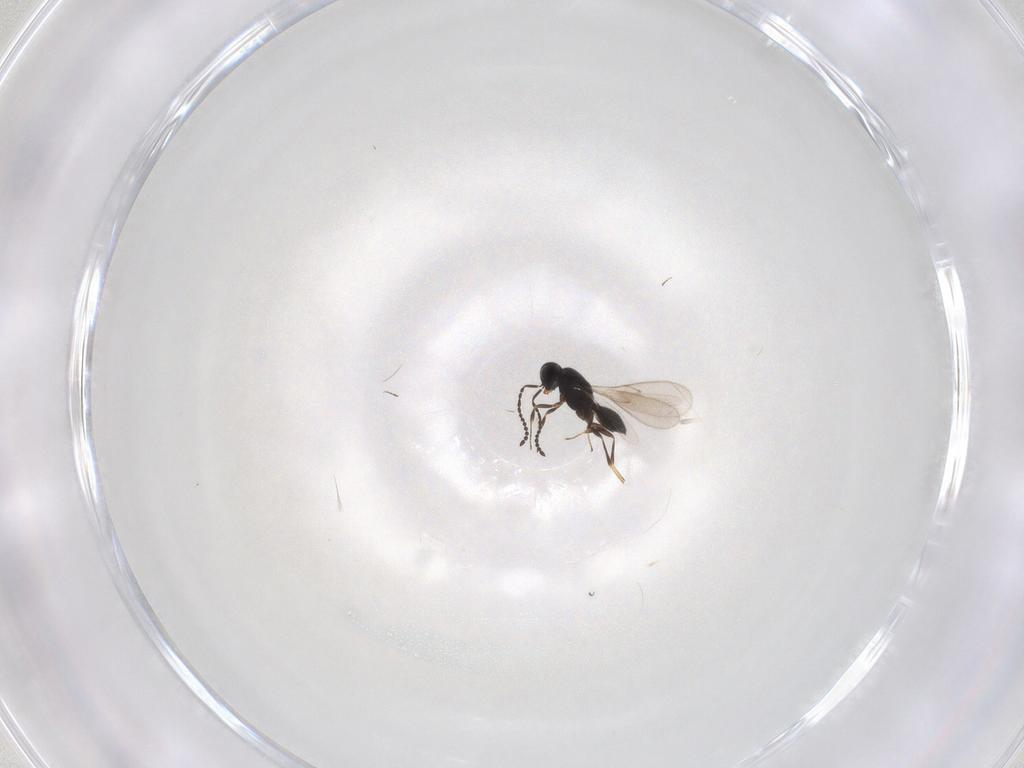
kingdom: Animalia
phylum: Arthropoda
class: Insecta
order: Hymenoptera
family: Scelionidae
